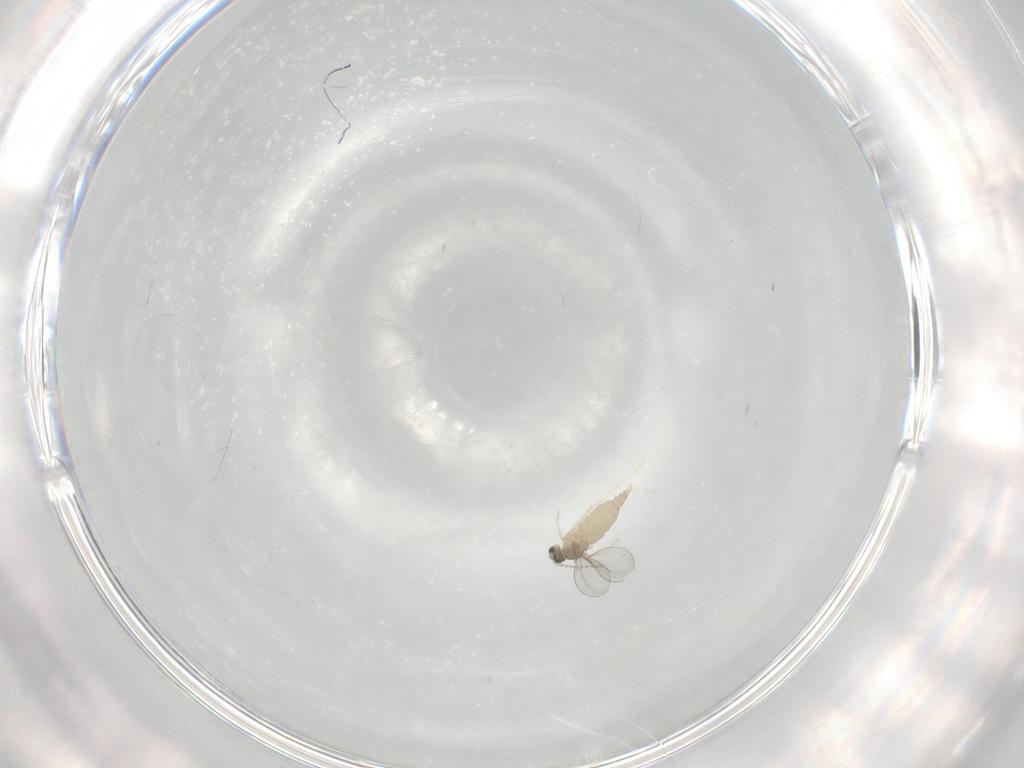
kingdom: Animalia
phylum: Arthropoda
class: Insecta
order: Diptera
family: Cecidomyiidae
